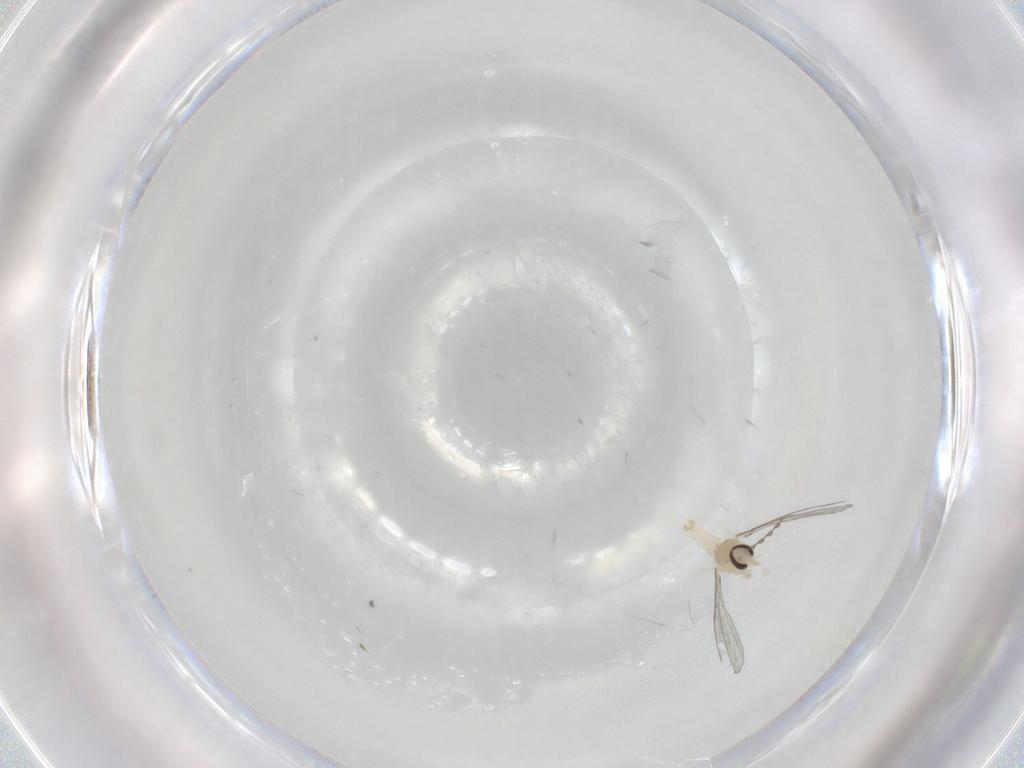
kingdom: Animalia
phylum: Arthropoda
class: Insecta
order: Diptera
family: Cecidomyiidae
